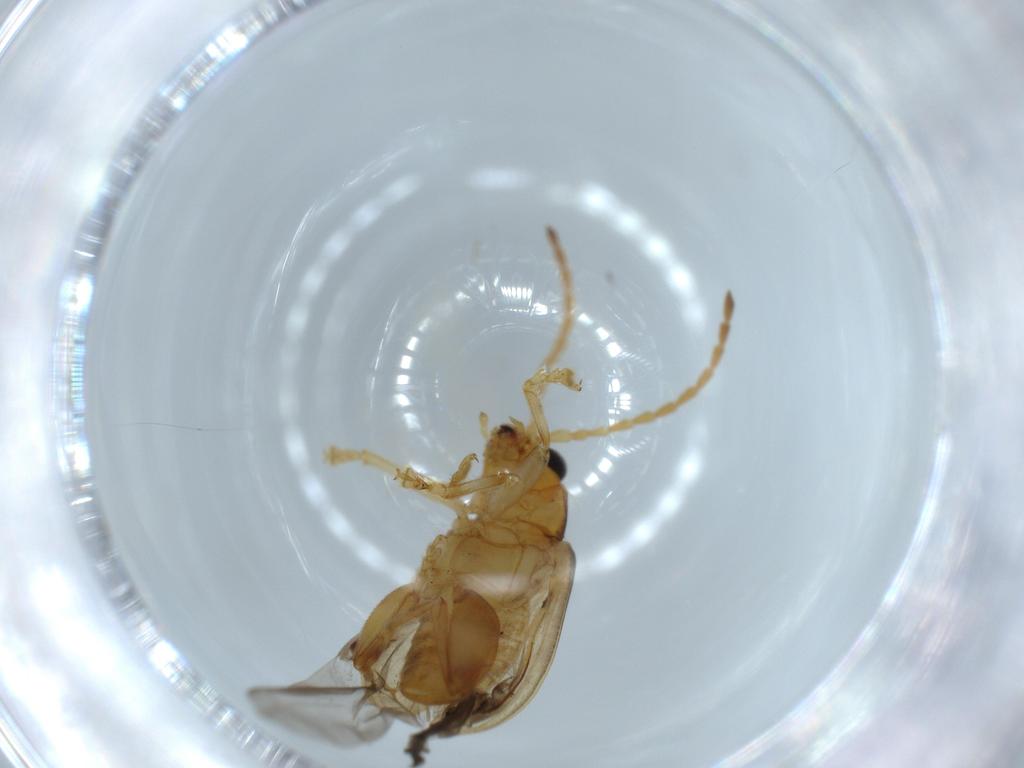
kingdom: Animalia
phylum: Arthropoda
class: Insecta
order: Coleoptera
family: Chrysomelidae
